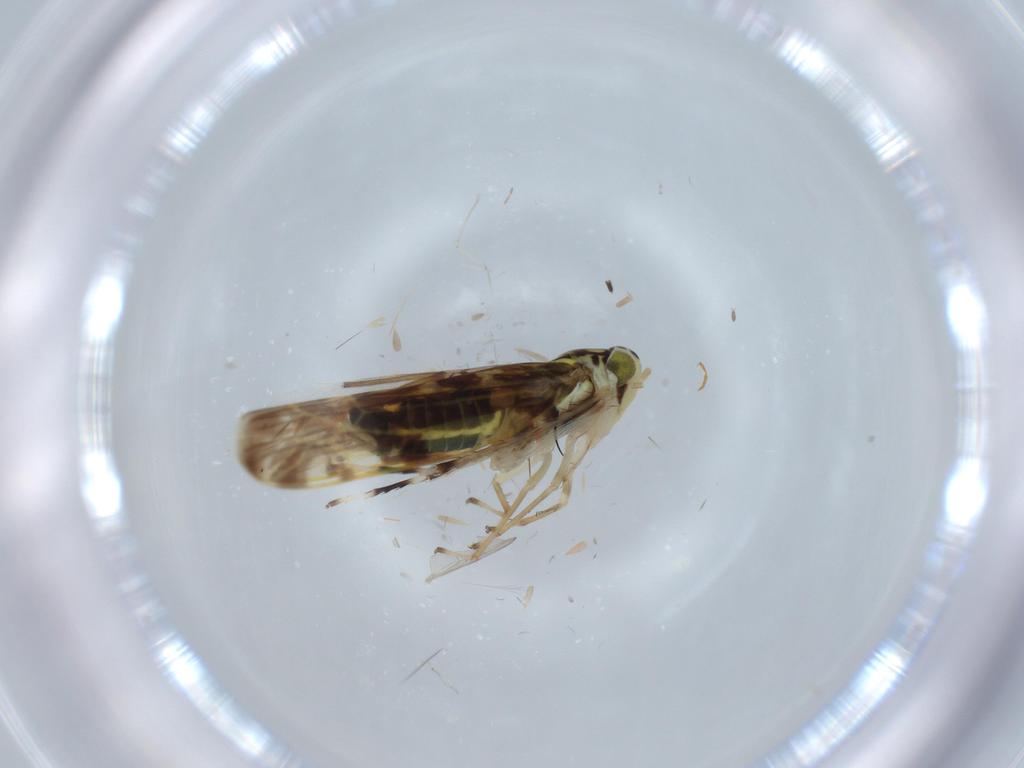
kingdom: Animalia
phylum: Arthropoda
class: Insecta
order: Hemiptera
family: Cicadellidae
